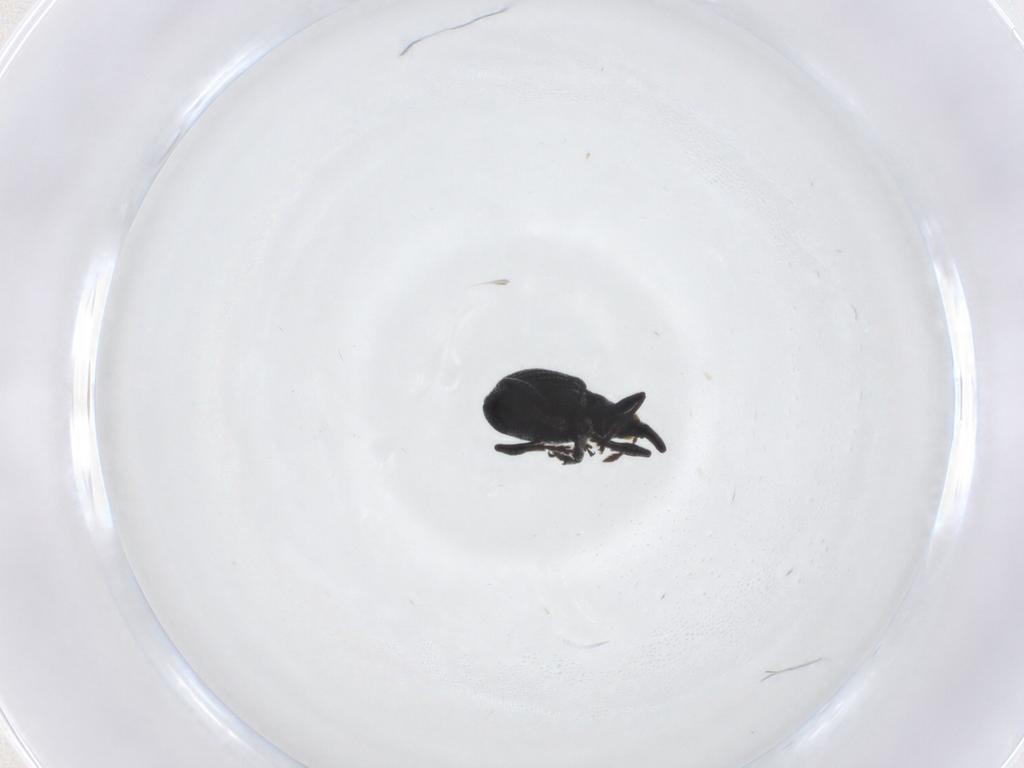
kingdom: Animalia
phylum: Arthropoda
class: Insecta
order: Coleoptera
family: Brentidae
